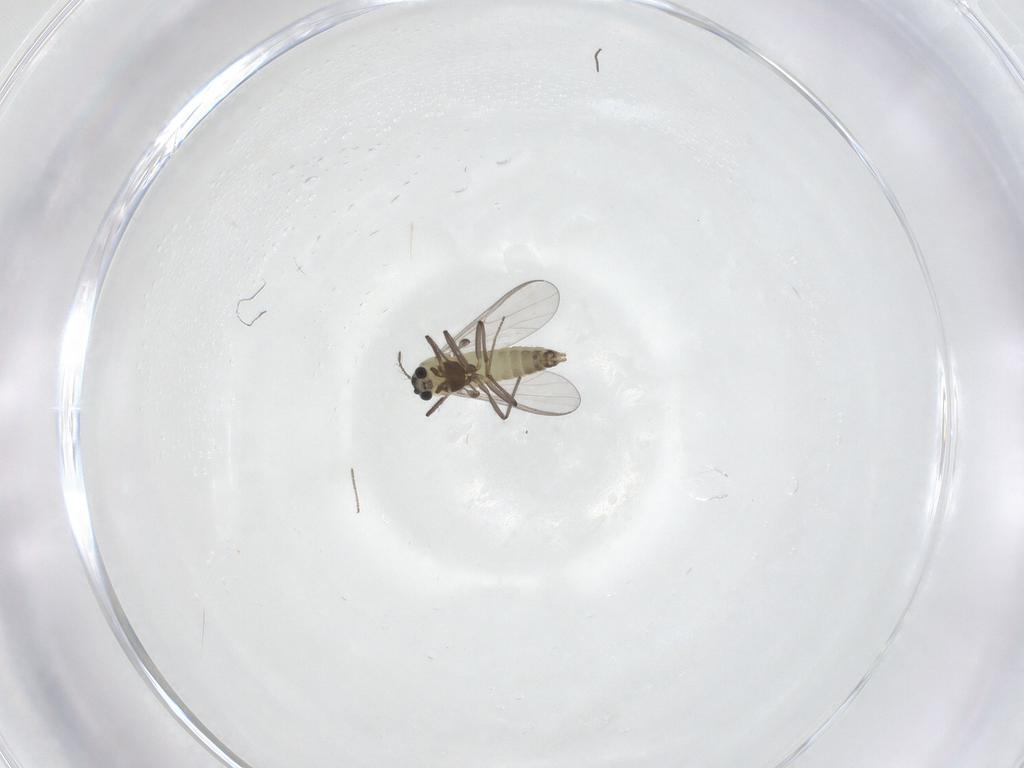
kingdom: Animalia
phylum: Arthropoda
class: Insecta
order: Diptera
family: Chironomidae
